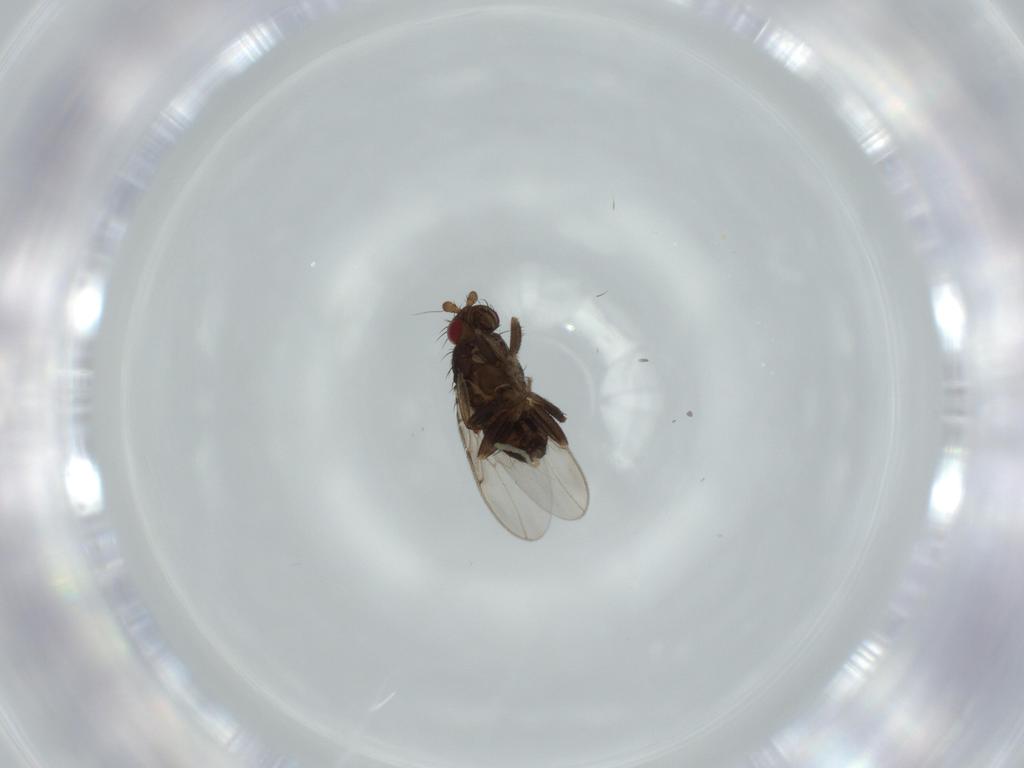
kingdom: Animalia
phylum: Arthropoda
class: Insecta
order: Diptera
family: Sphaeroceridae
